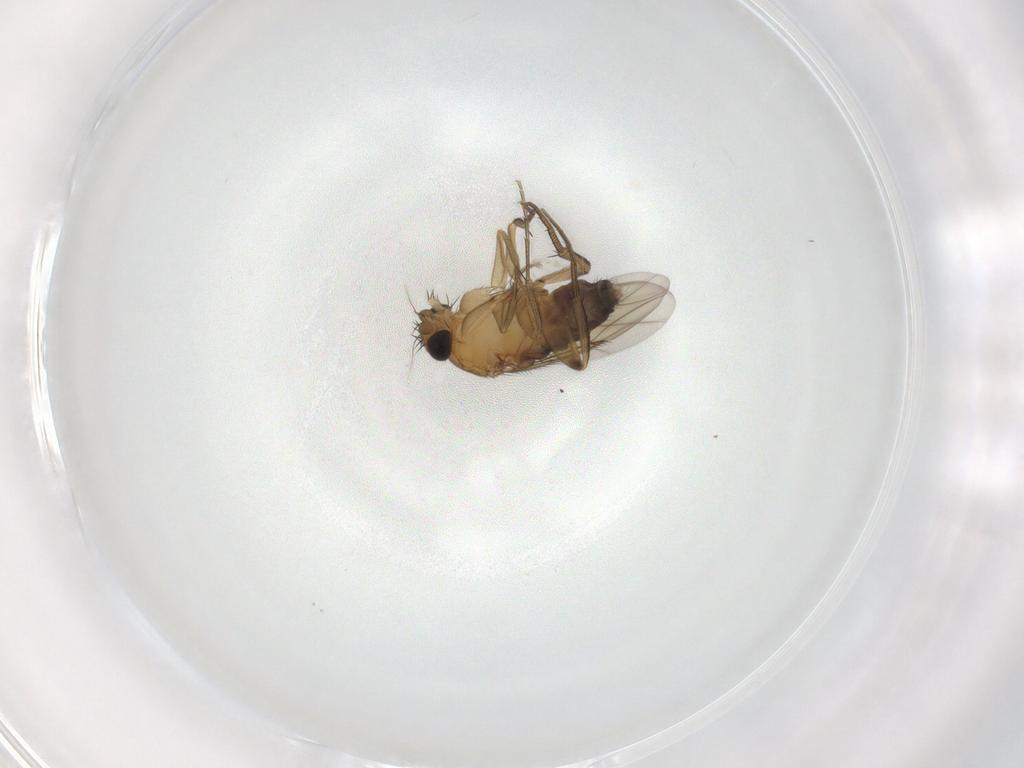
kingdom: Animalia
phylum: Arthropoda
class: Insecta
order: Diptera
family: Phoridae
